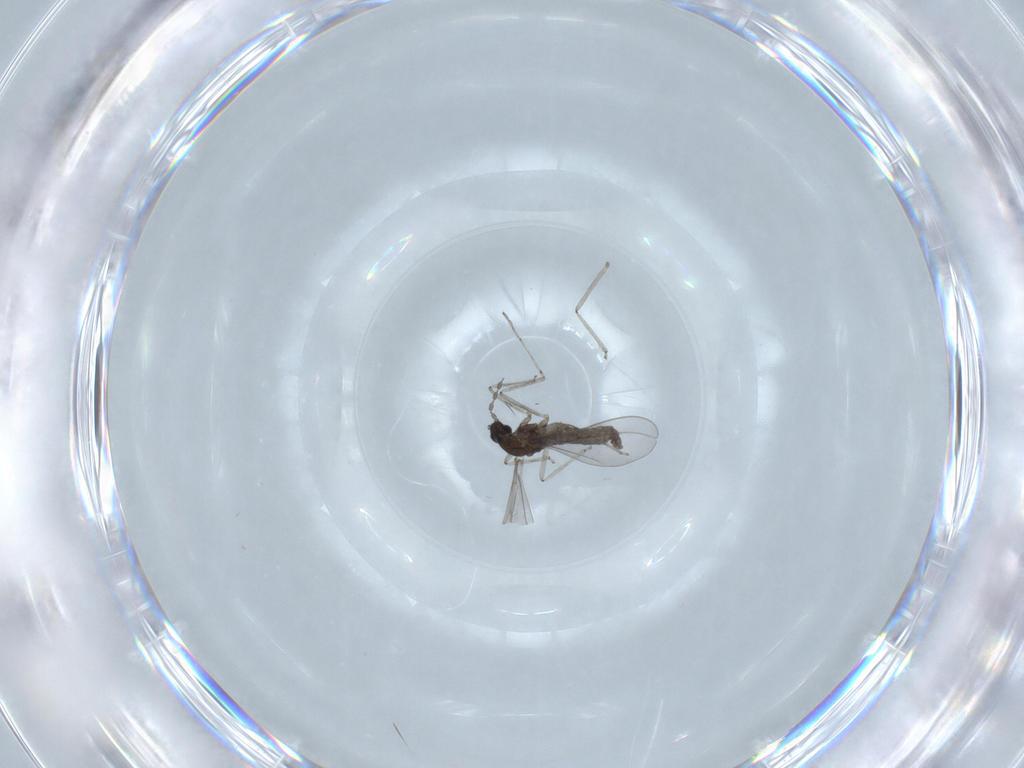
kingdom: Animalia
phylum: Arthropoda
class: Insecta
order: Diptera
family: Cecidomyiidae
